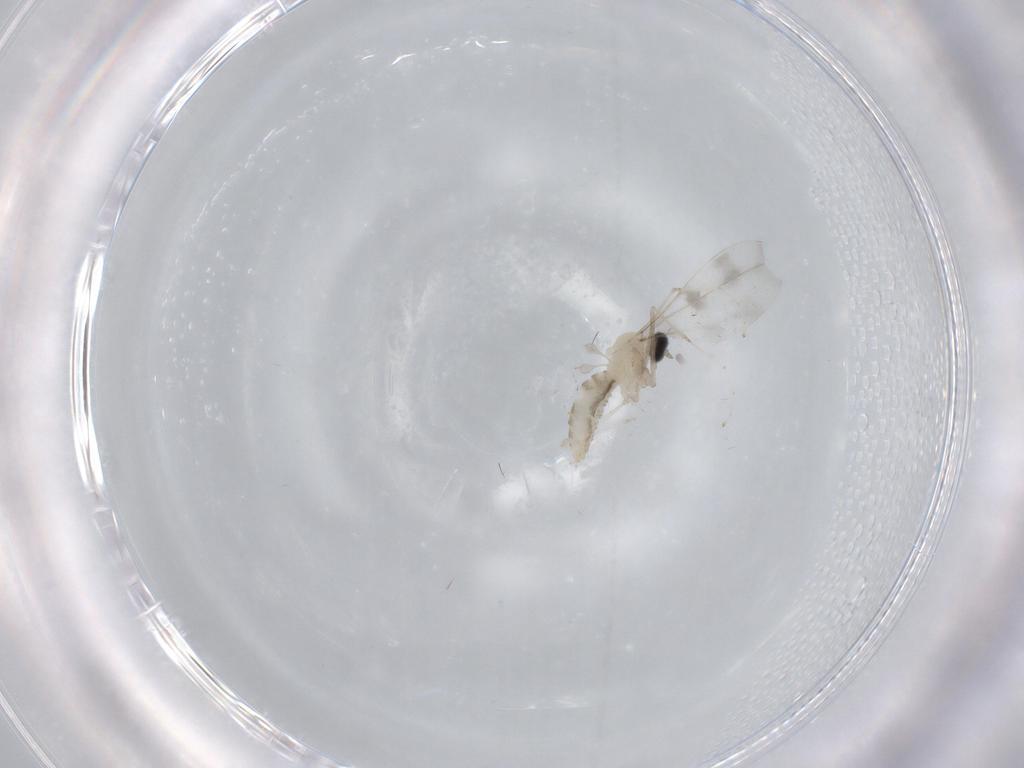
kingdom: Animalia
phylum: Arthropoda
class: Insecta
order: Diptera
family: Cecidomyiidae
